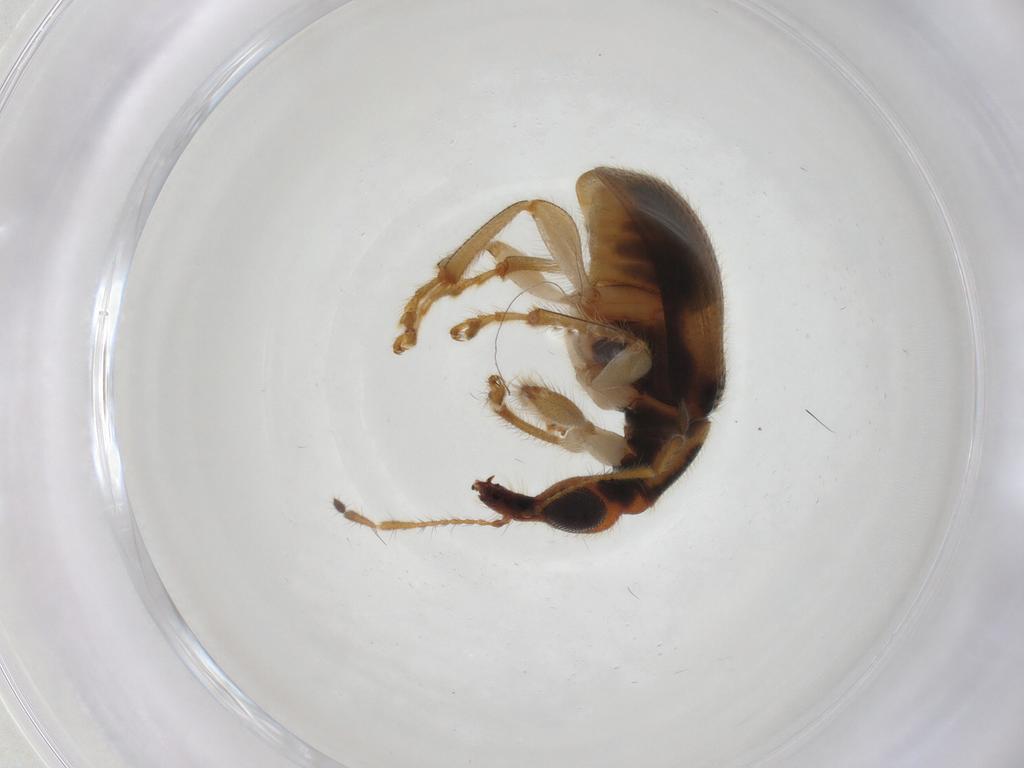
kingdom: Animalia
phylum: Arthropoda
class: Insecta
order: Coleoptera
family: Attelabidae
